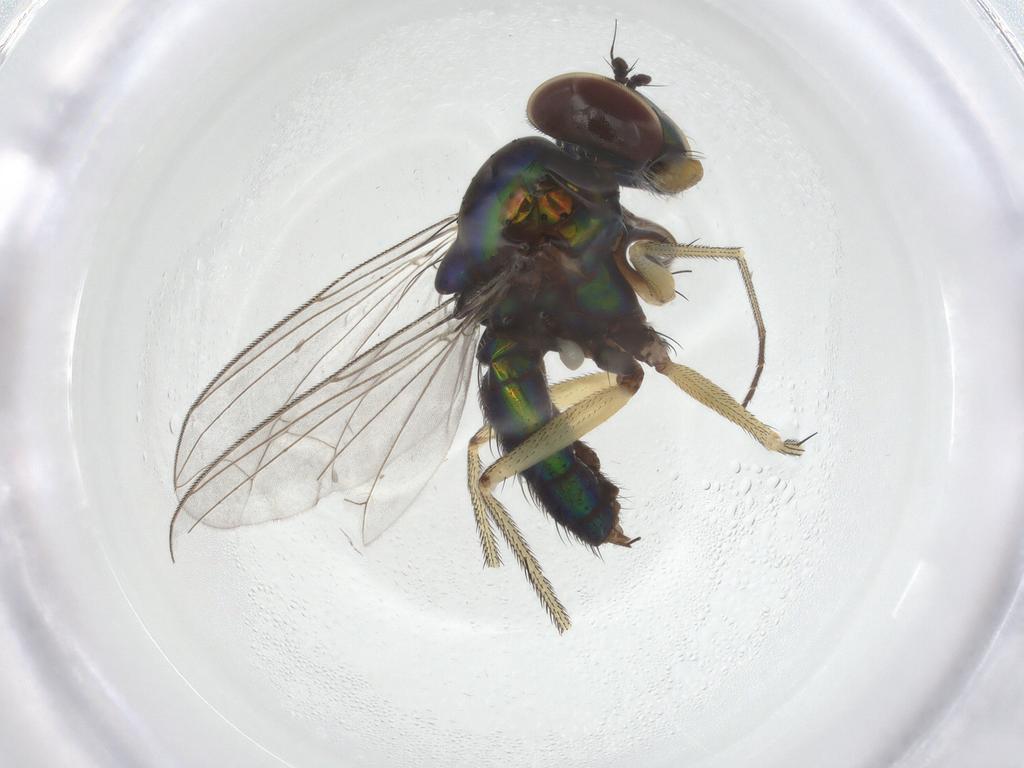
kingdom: Animalia
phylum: Arthropoda
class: Insecta
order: Diptera
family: Dolichopodidae
